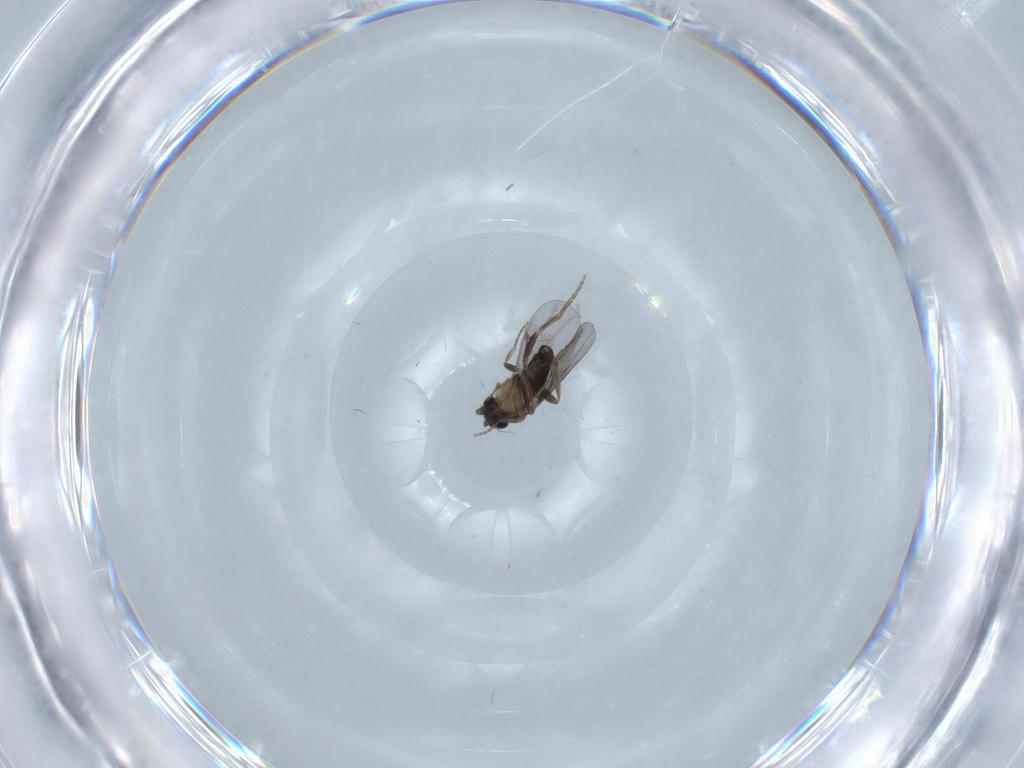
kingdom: Animalia
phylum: Arthropoda
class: Insecta
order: Diptera
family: Phoridae
